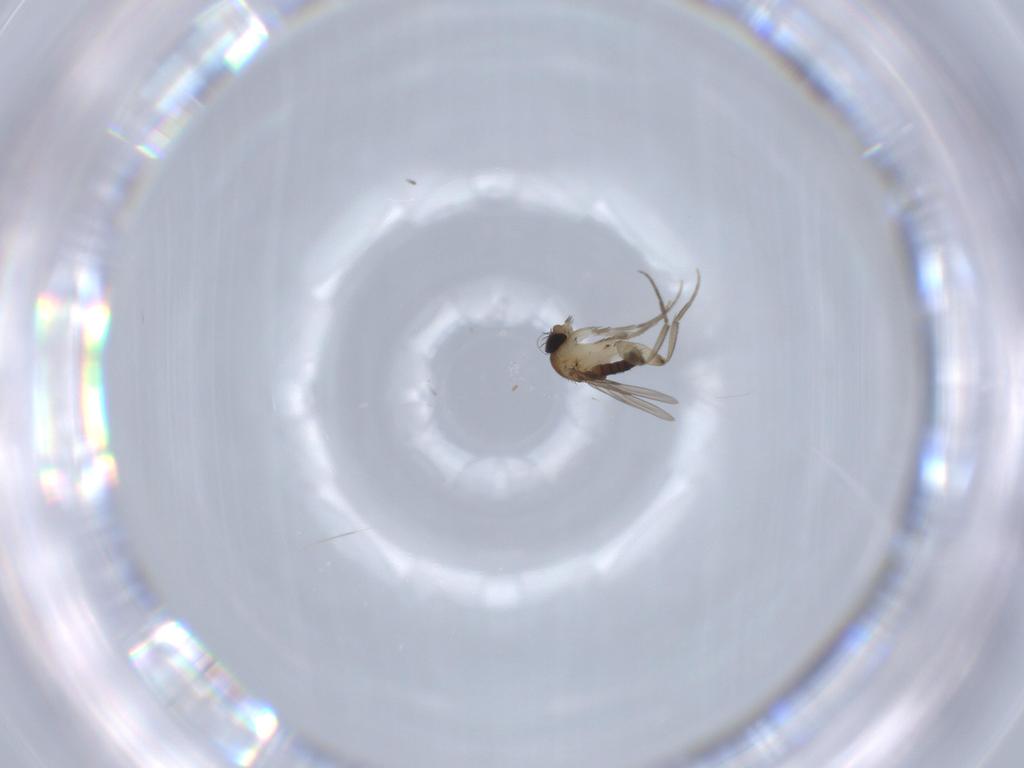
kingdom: Animalia
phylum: Arthropoda
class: Insecta
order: Diptera
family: Phoridae
